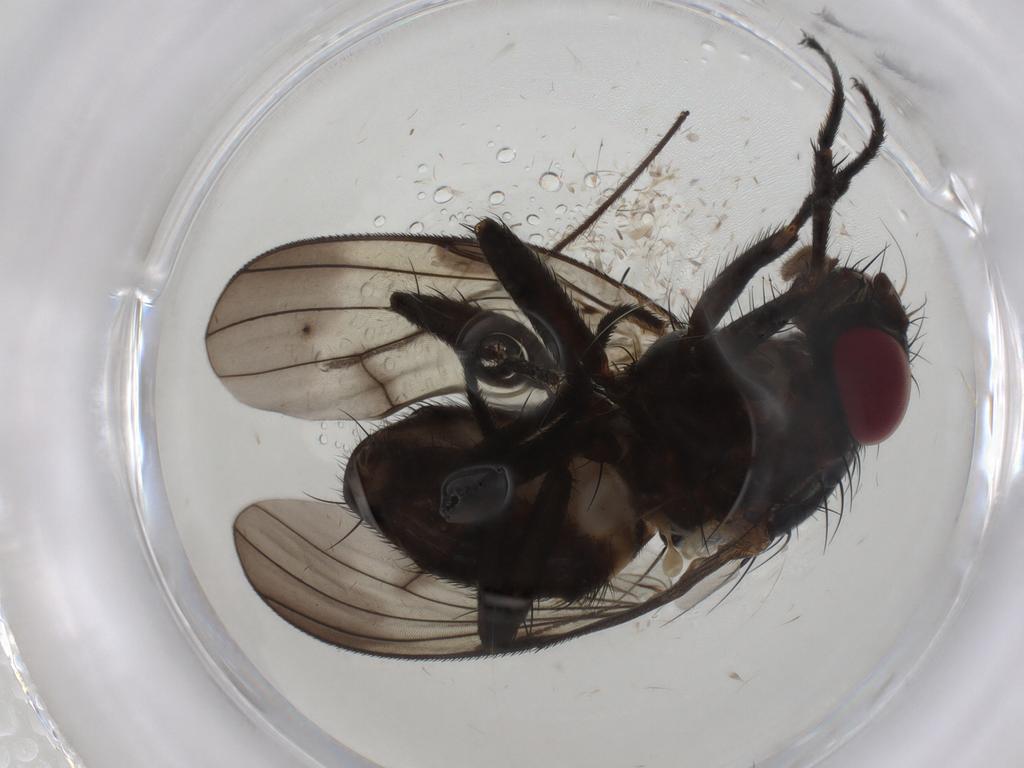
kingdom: Animalia
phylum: Arthropoda
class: Insecta
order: Diptera
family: Phoridae
